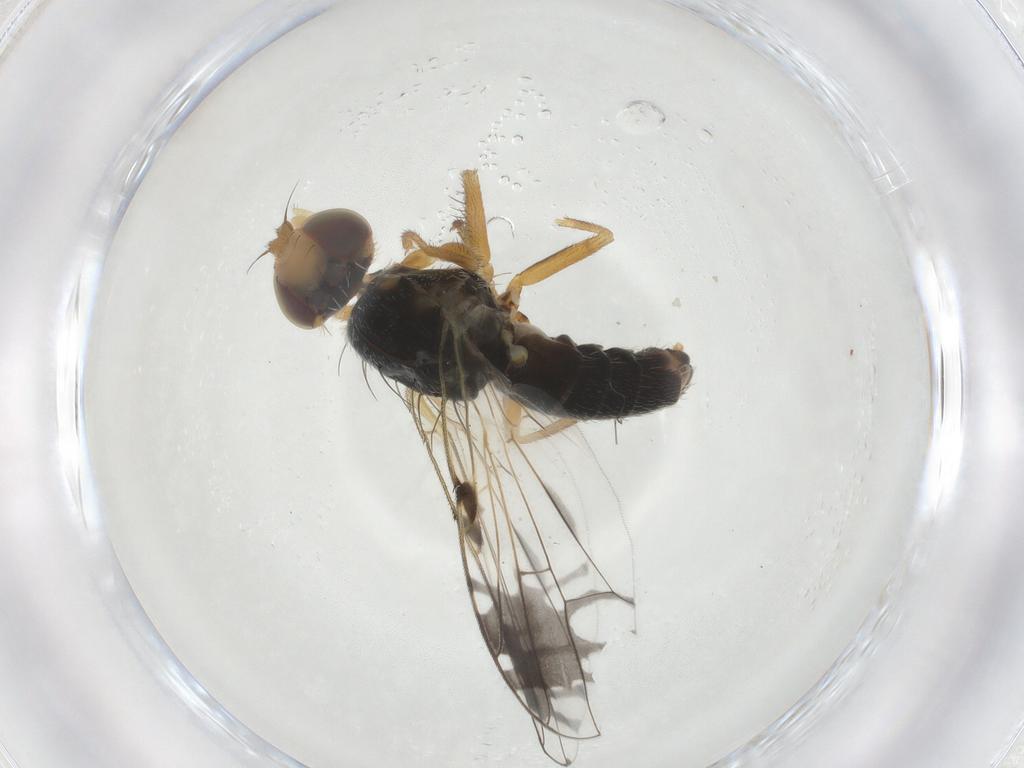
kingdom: Animalia
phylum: Arthropoda
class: Insecta
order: Diptera
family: Tephritidae
